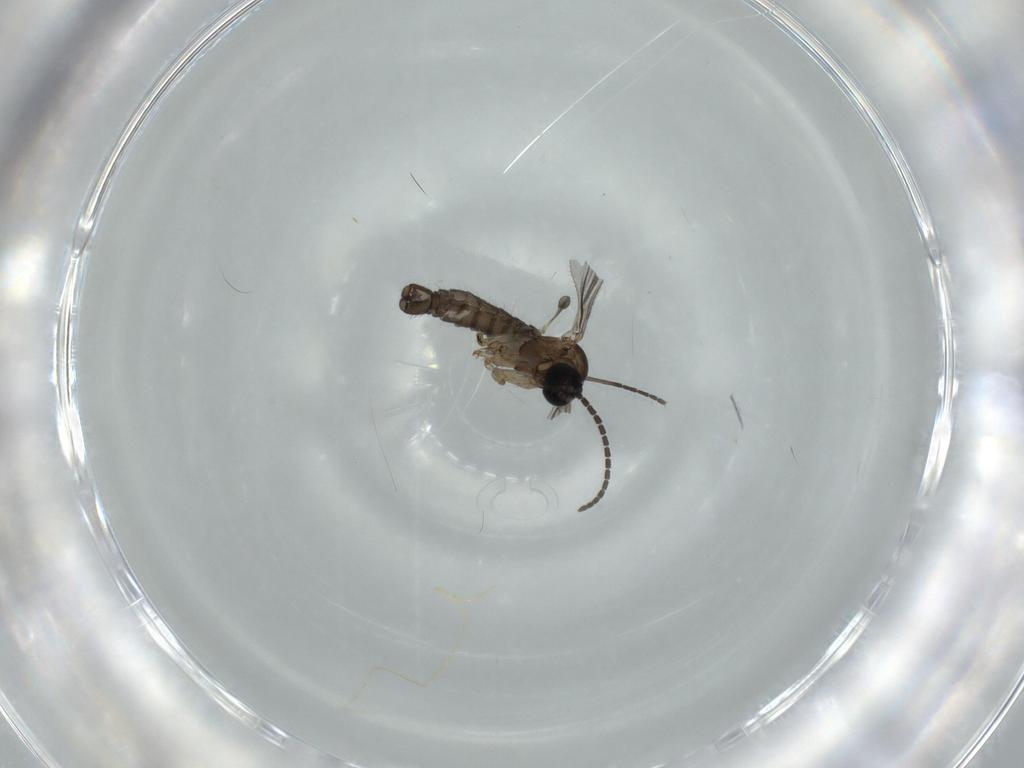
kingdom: Animalia
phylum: Arthropoda
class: Insecta
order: Diptera
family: Sciaridae
